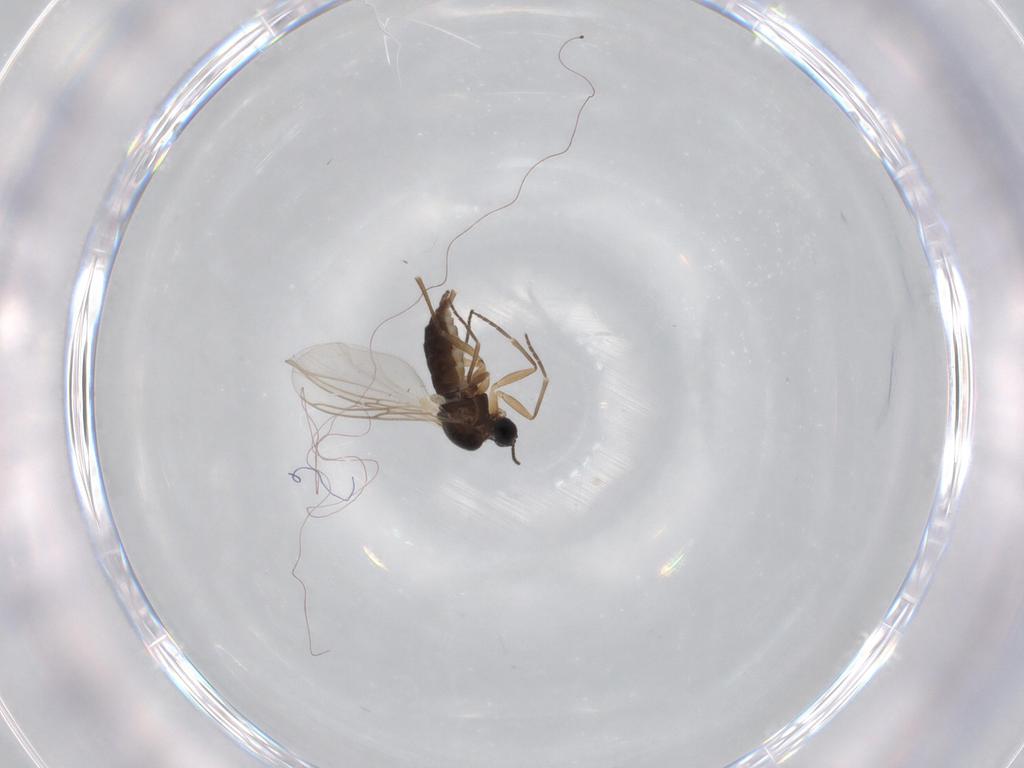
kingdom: Animalia
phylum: Arthropoda
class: Insecta
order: Diptera
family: Sciaridae
